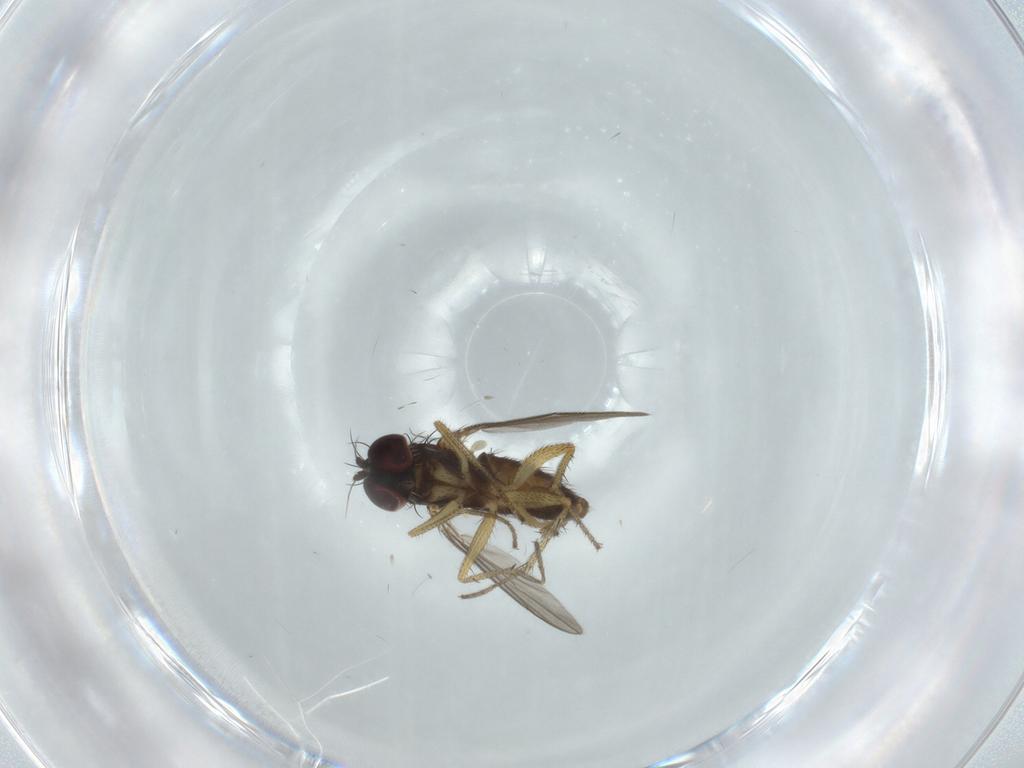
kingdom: Animalia
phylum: Arthropoda
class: Insecta
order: Diptera
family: Dolichopodidae
